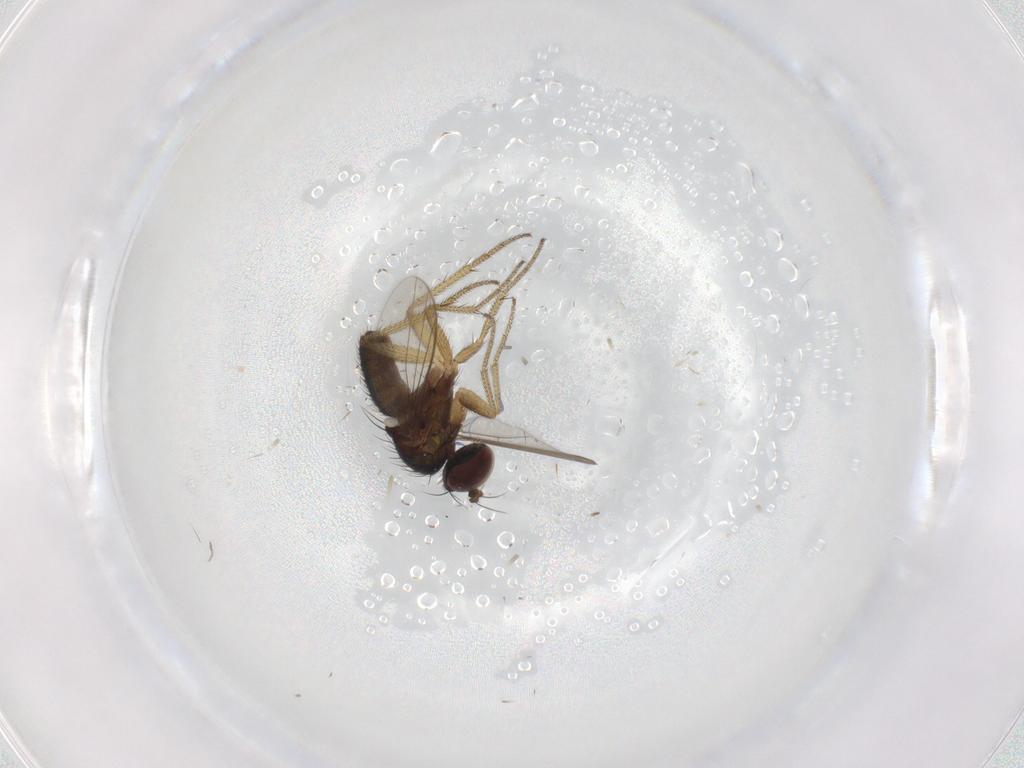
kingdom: Animalia
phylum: Arthropoda
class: Insecta
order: Diptera
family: Dolichopodidae
